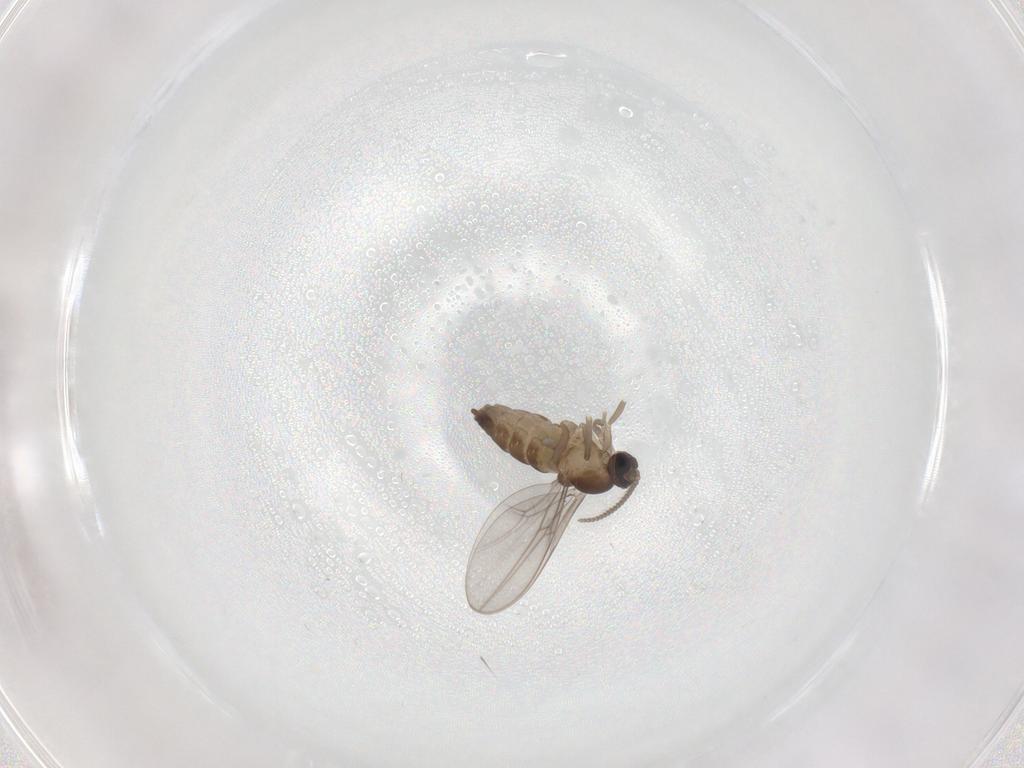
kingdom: Animalia
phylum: Arthropoda
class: Insecta
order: Diptera
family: Cecidomyiidae
